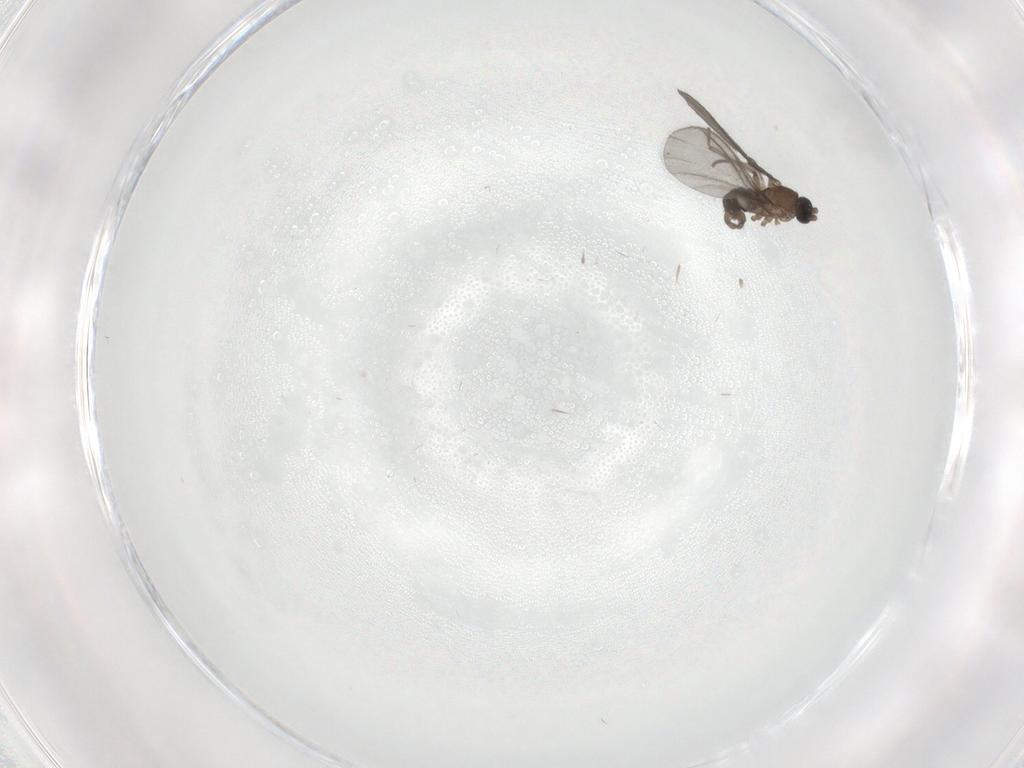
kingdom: Animalia
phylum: Arthropoda
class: Insecta
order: Diptera
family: Sciaridae
